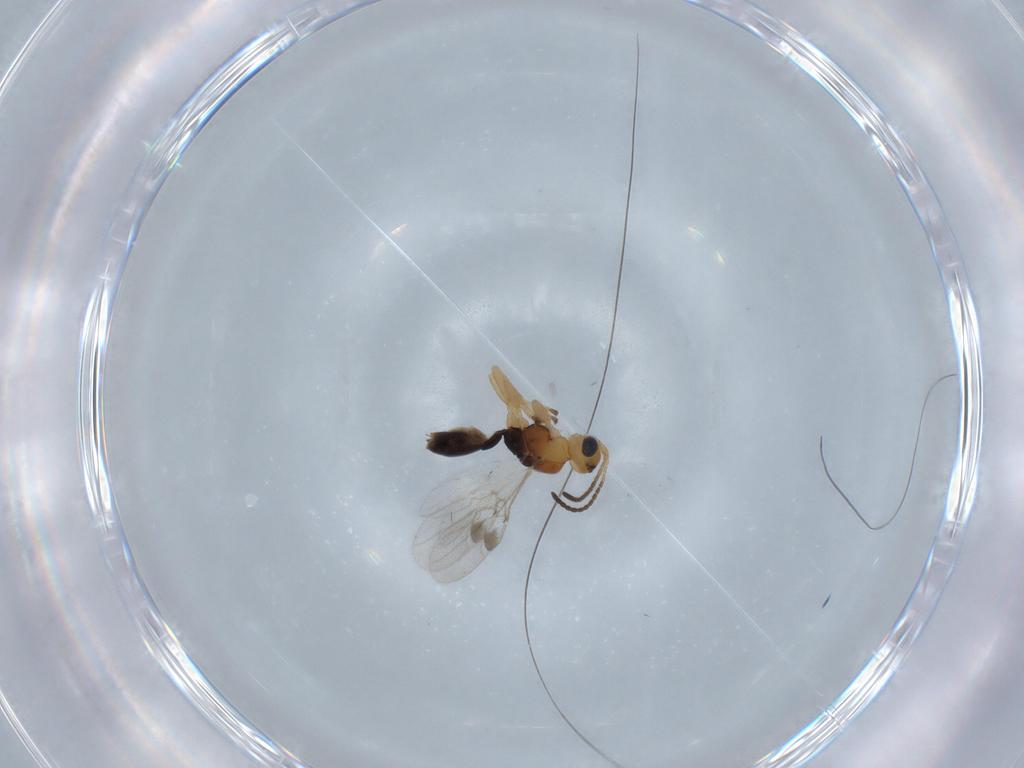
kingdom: Animalia
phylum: Arthropoda
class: Insecta
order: Hymenoptera
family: Braconidae
